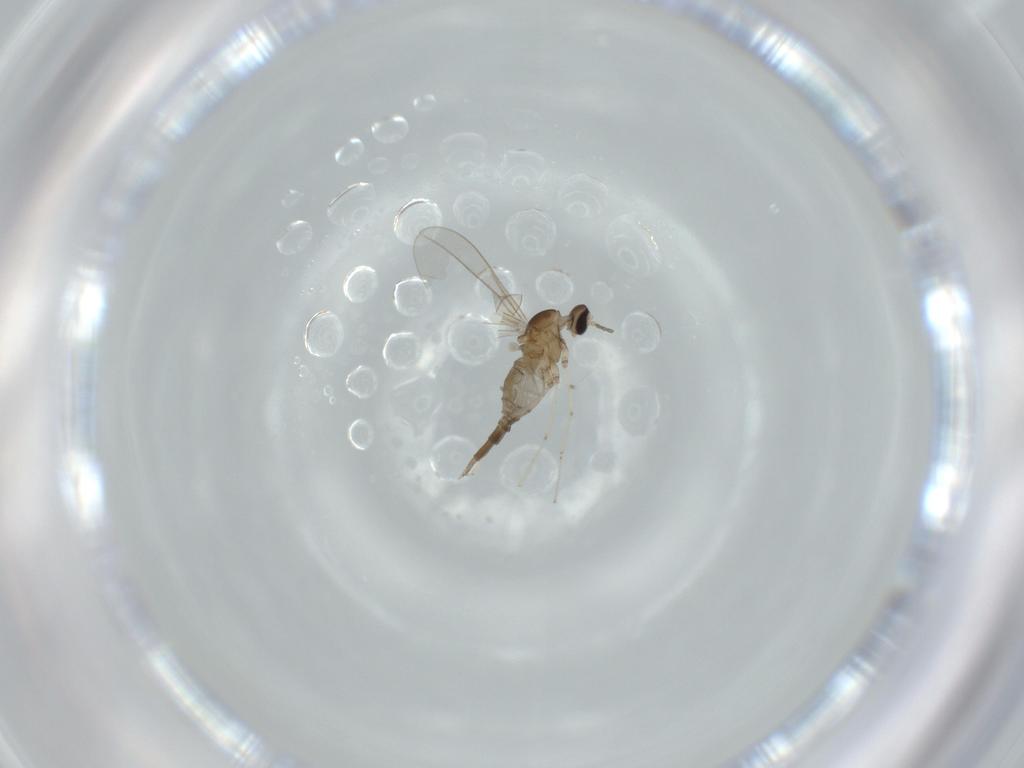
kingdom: Animalia
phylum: Arthropoda
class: Insecta
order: Diptera
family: Cecidomyiidae
